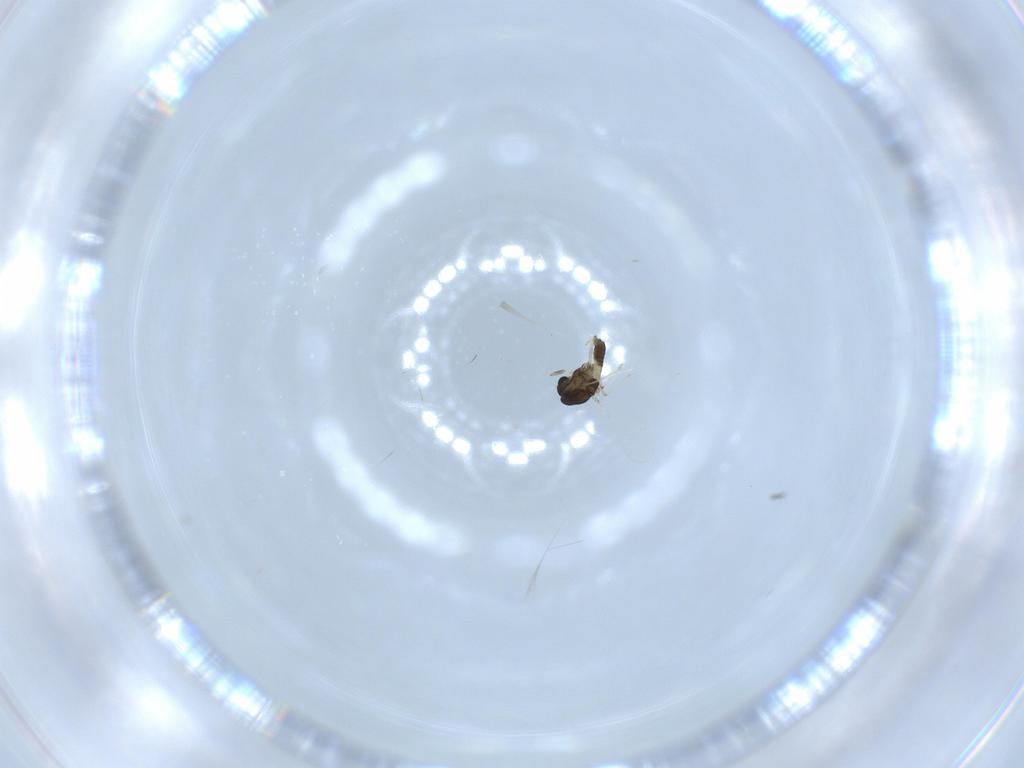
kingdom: Animalia
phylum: Arthropoda
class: Insecta
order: Diptera
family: Chironomidae
